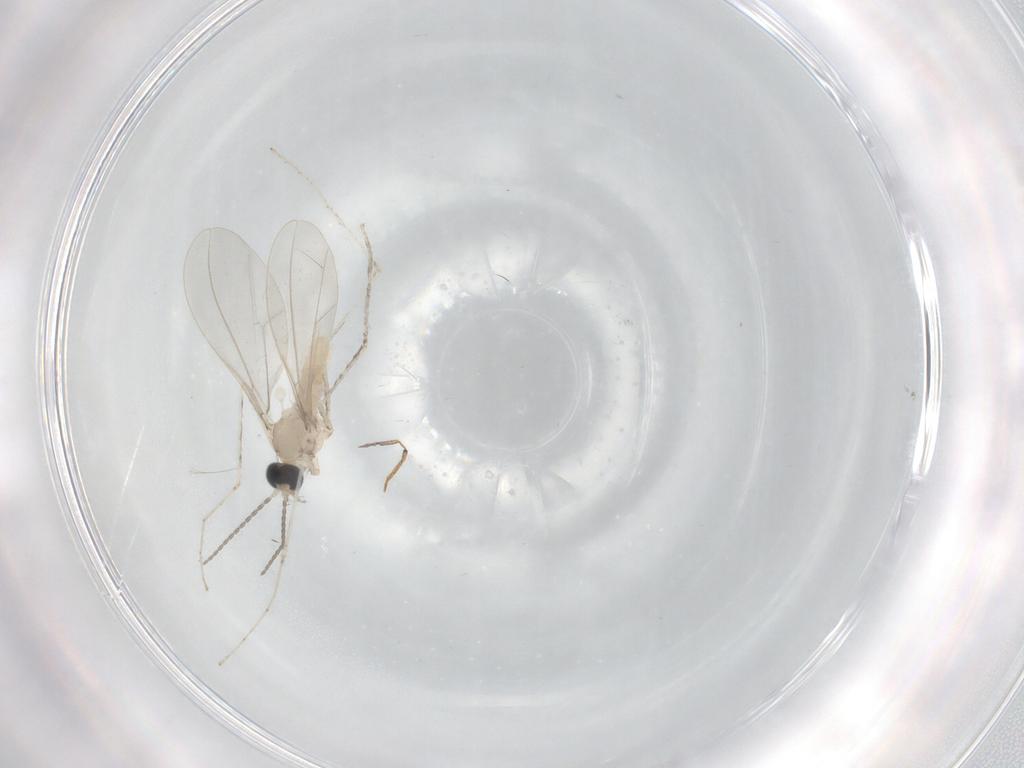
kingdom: Animalia
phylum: Arthropoda
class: Insecta
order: Diptera
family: Cecidomyiidae
